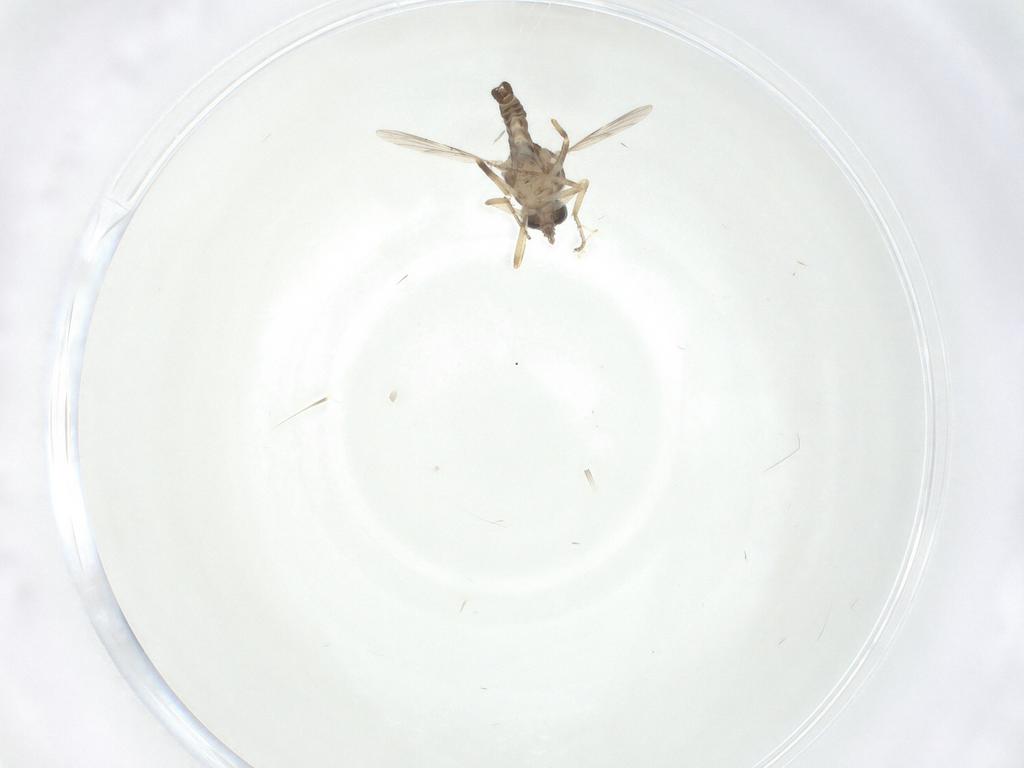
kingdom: Animalia
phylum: Arthropoda
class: Insecta
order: Diptera
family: Ceratopogonidae
